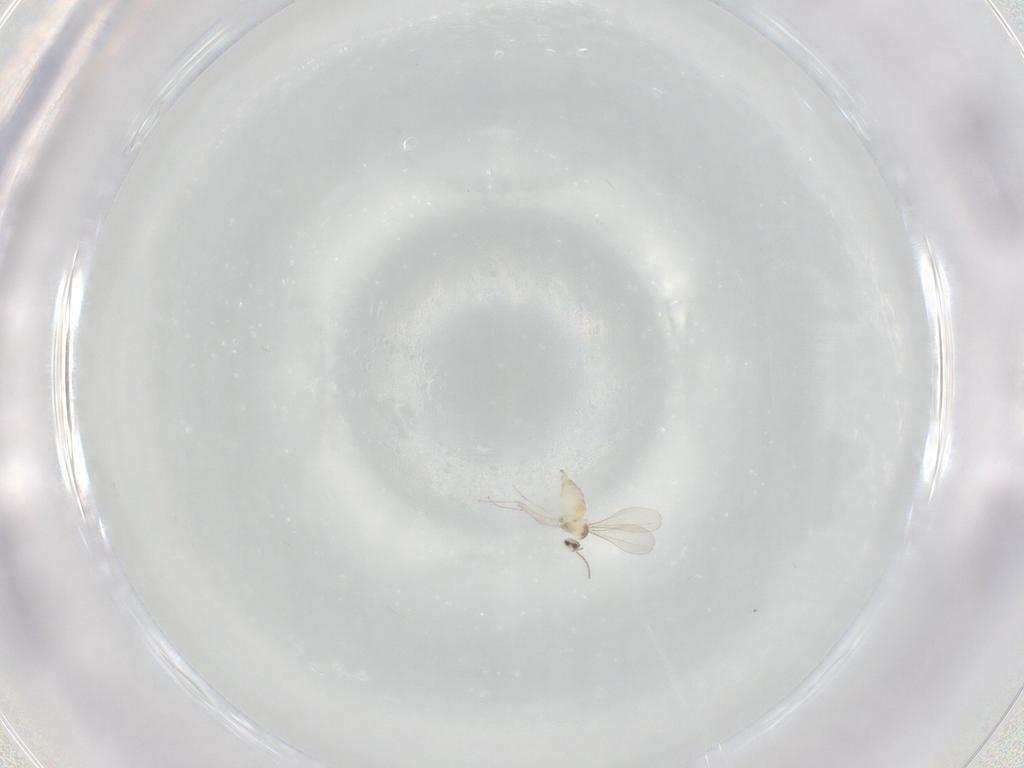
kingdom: Animalia
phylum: Arthropoda
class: Insecta
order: Diptera
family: Cecidomyiidae
